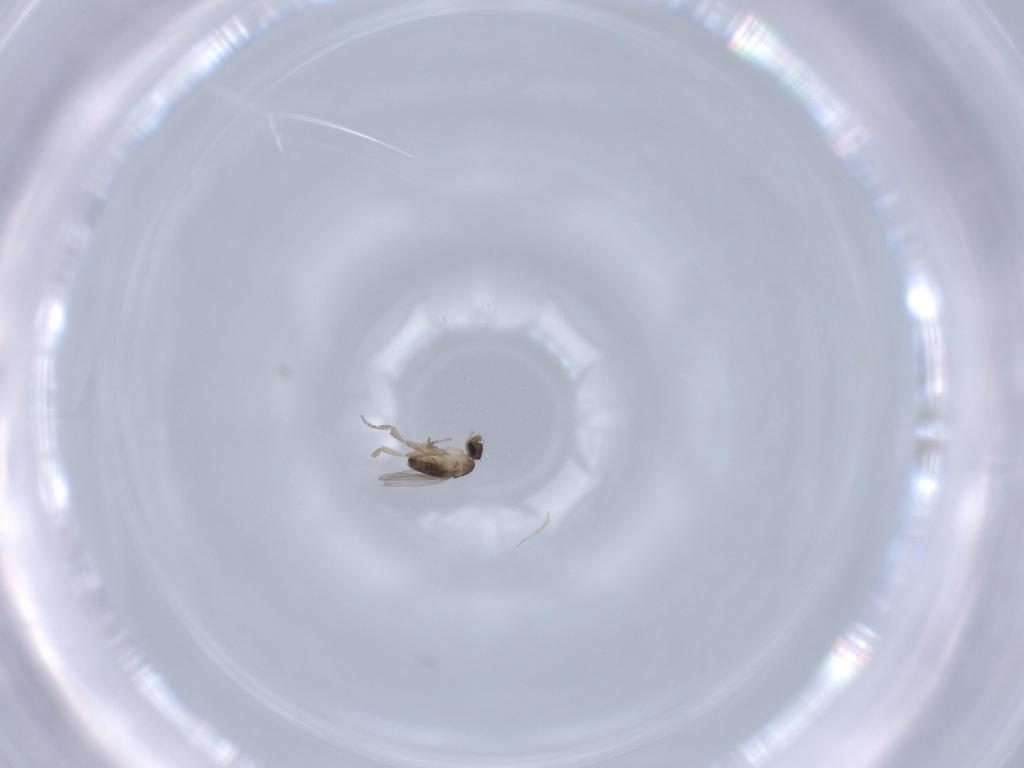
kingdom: Animalia
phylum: Arthropoda
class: Insecta
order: Diptera
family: Phoridae
